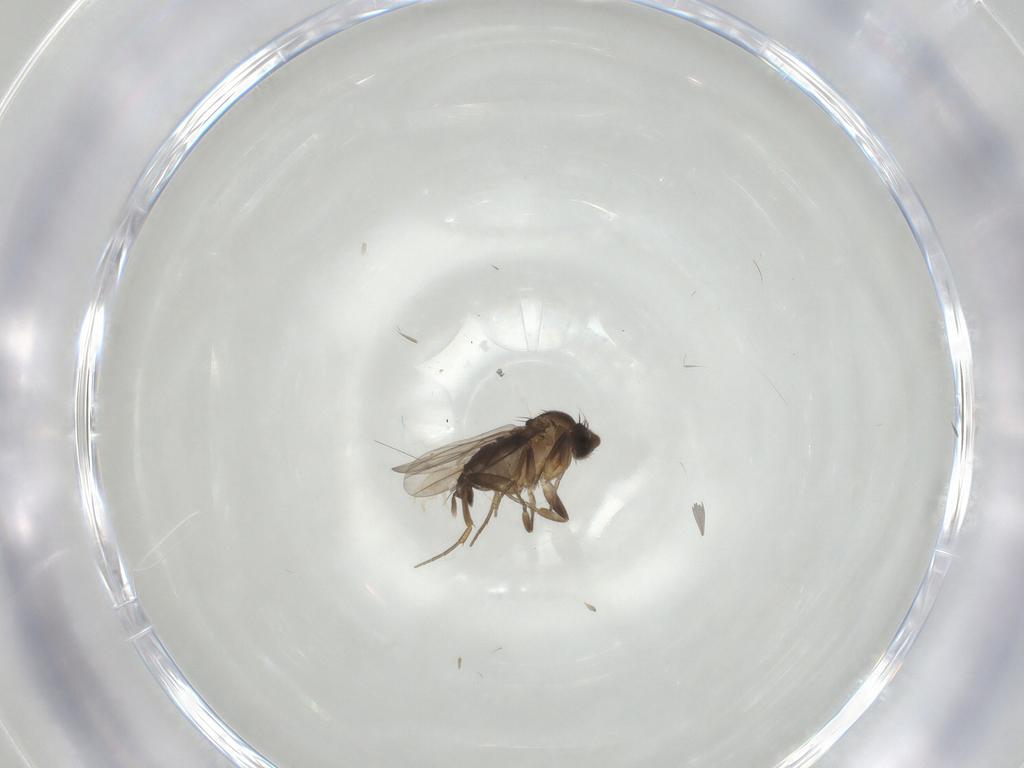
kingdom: Animalia
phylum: Arthropoda
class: Insecta
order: Diptera
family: Phoridae
